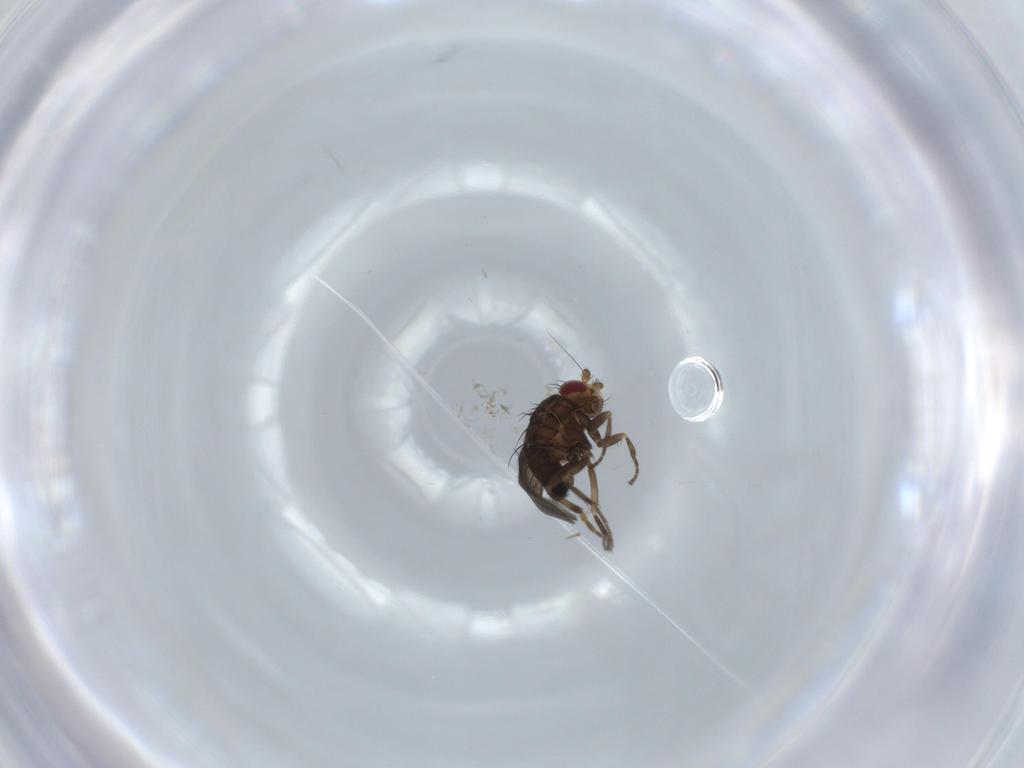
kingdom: Animalia
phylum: Arthropoda
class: Insecta
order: Diptera
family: Sphaeroceridae
